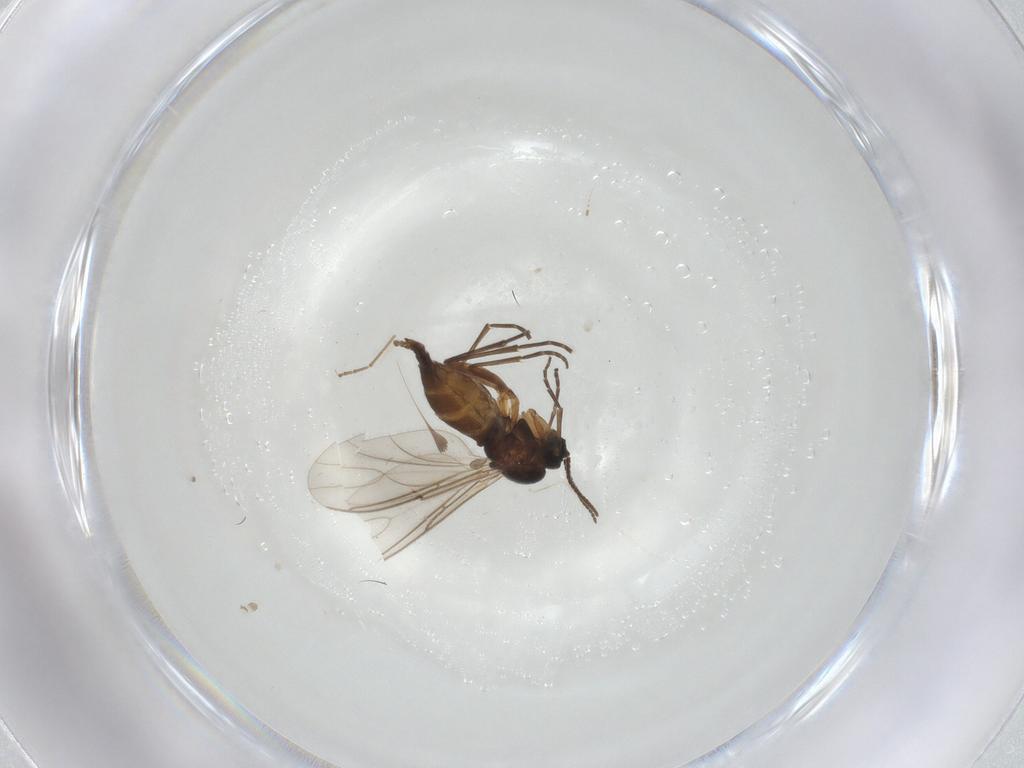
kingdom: Animalia
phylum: Arthropoda
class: Insecta
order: Diptera
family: Sciaridae
